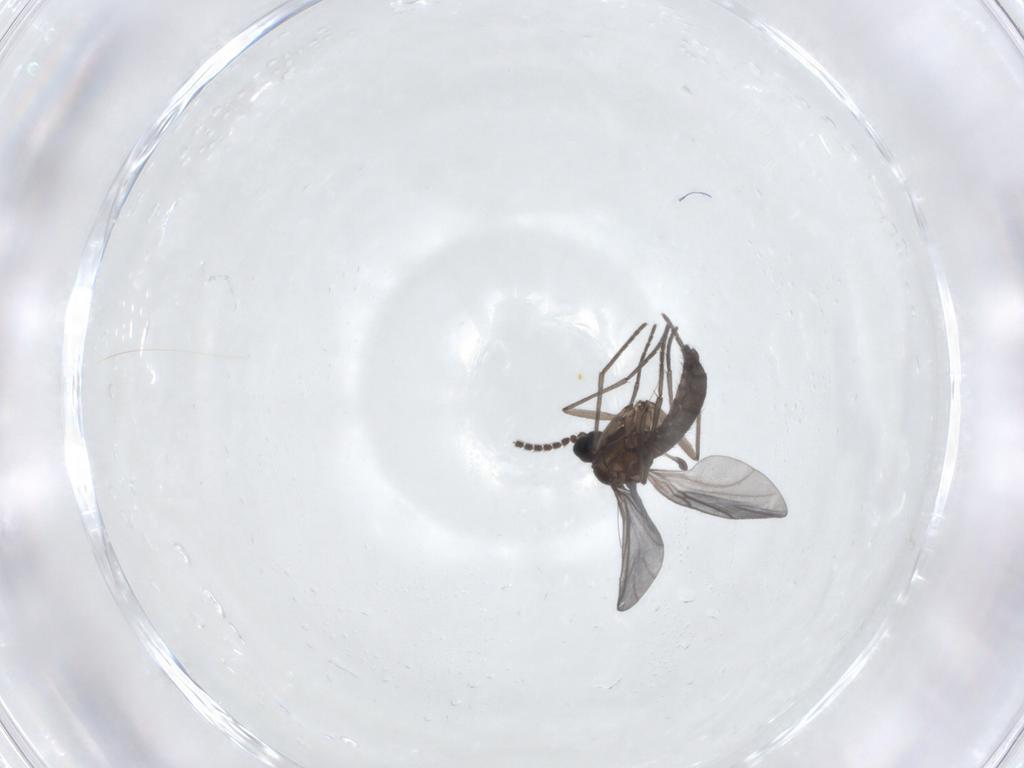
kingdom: Animalia
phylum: Arthropoda
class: Insecta
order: Diptera
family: Sciaridae
